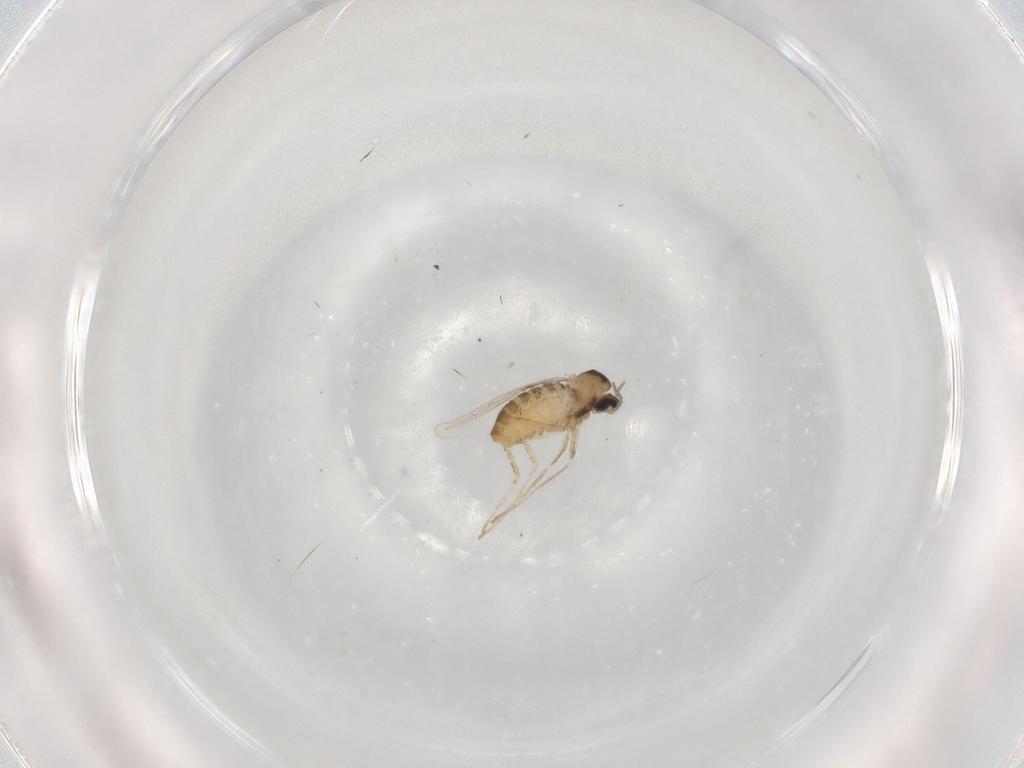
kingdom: Animalia
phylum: Arthropoda
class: Insecta
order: Diptera
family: Cecidomyiidae
